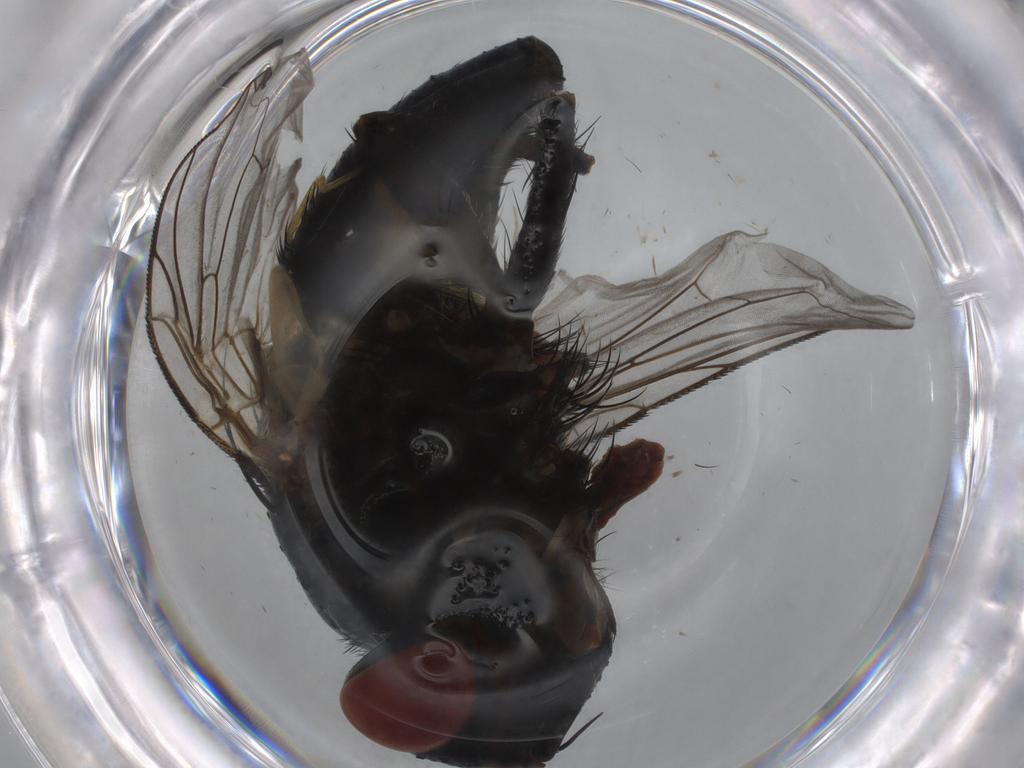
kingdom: Animalia
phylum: Arthropoda
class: Insecta
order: Diptera
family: Tachinidae
